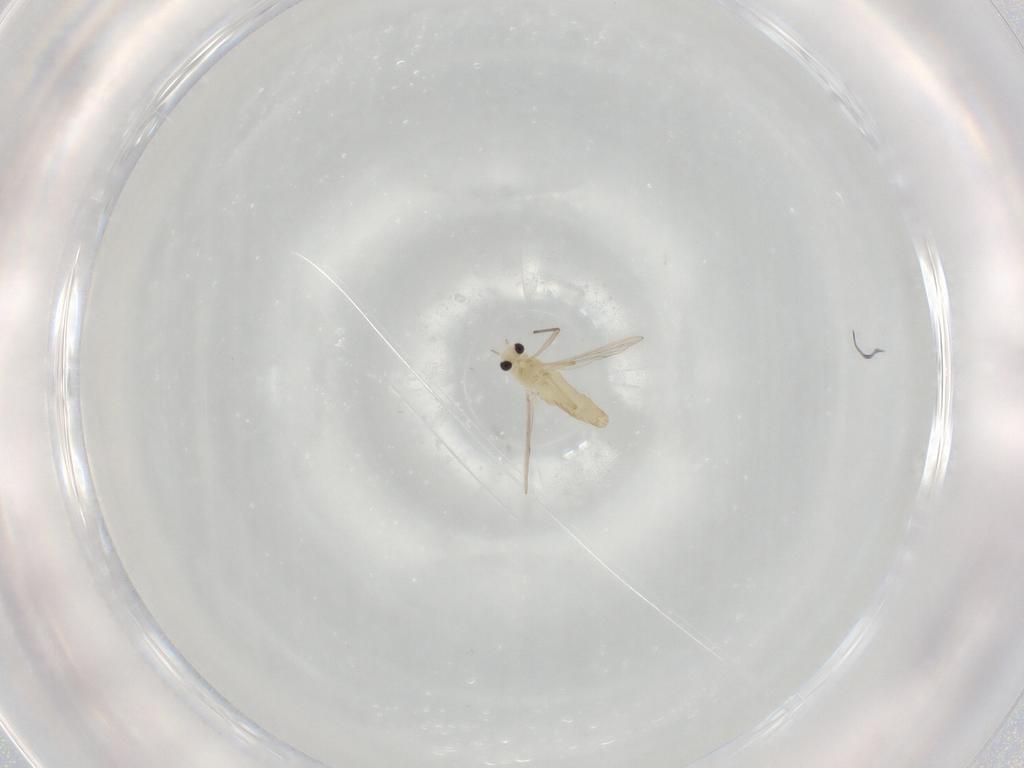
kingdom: Animalia
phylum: Arthropoda
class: Insecta
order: Diptera
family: Chironomidae
